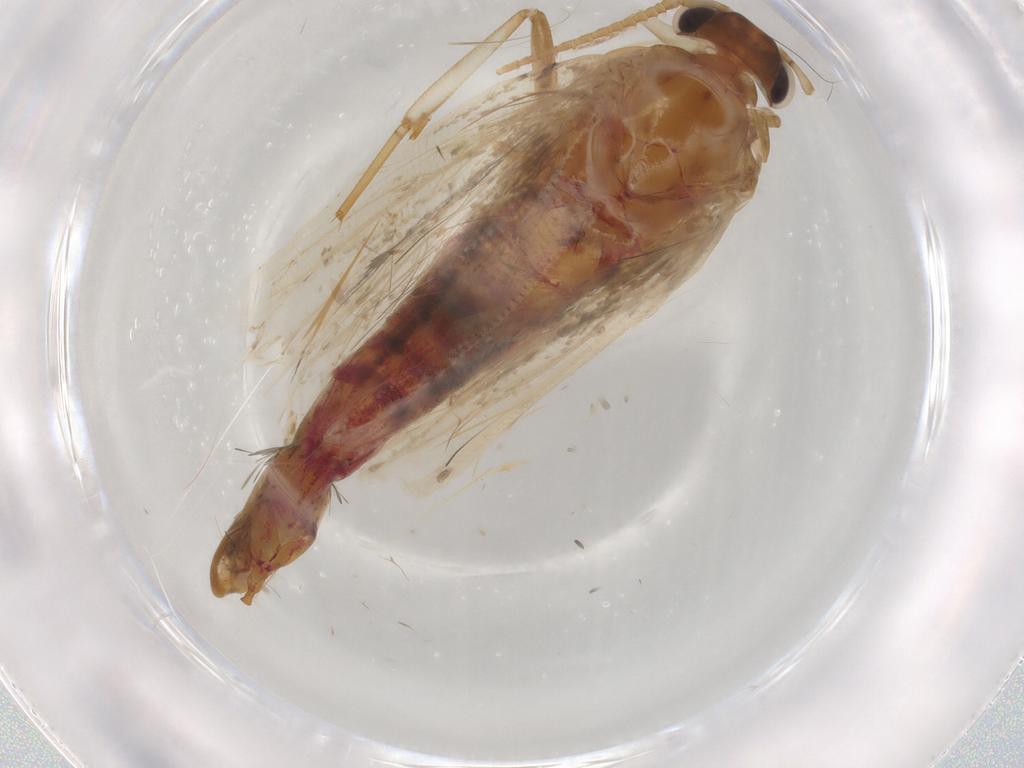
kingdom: Animalia
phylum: Arthropoda
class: Insecta
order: Lepidoptera
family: Lecithoceridae
